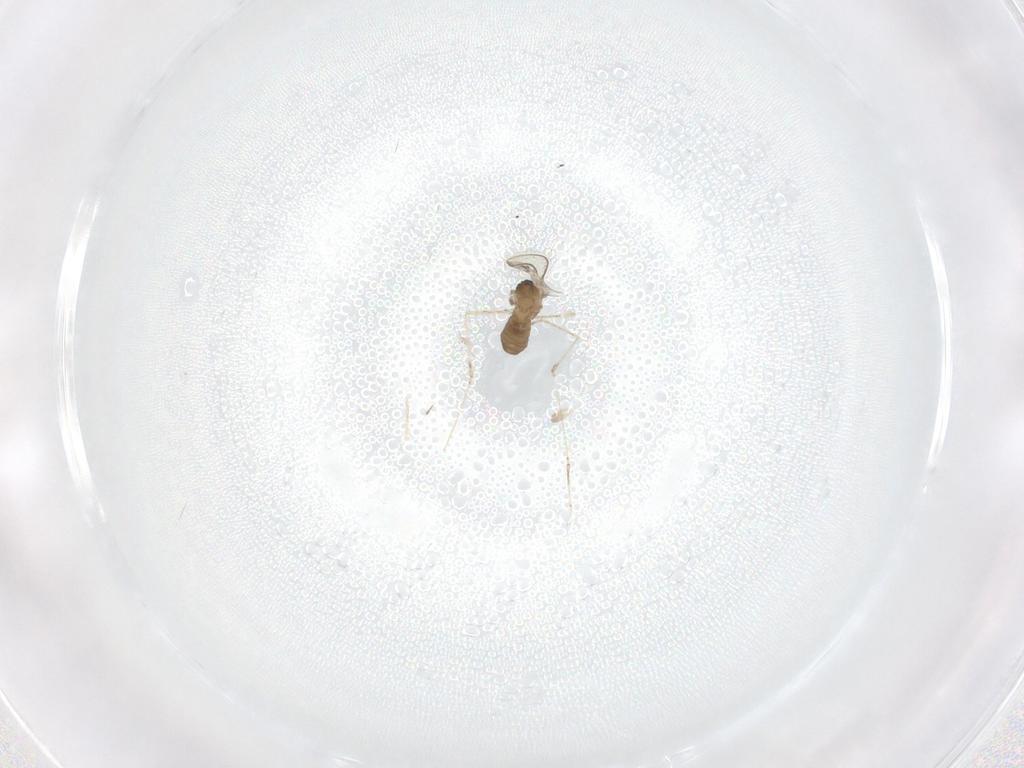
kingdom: Animalia
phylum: Arthropoda
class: Insecta
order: Diptera
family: Cecidomyiidae
